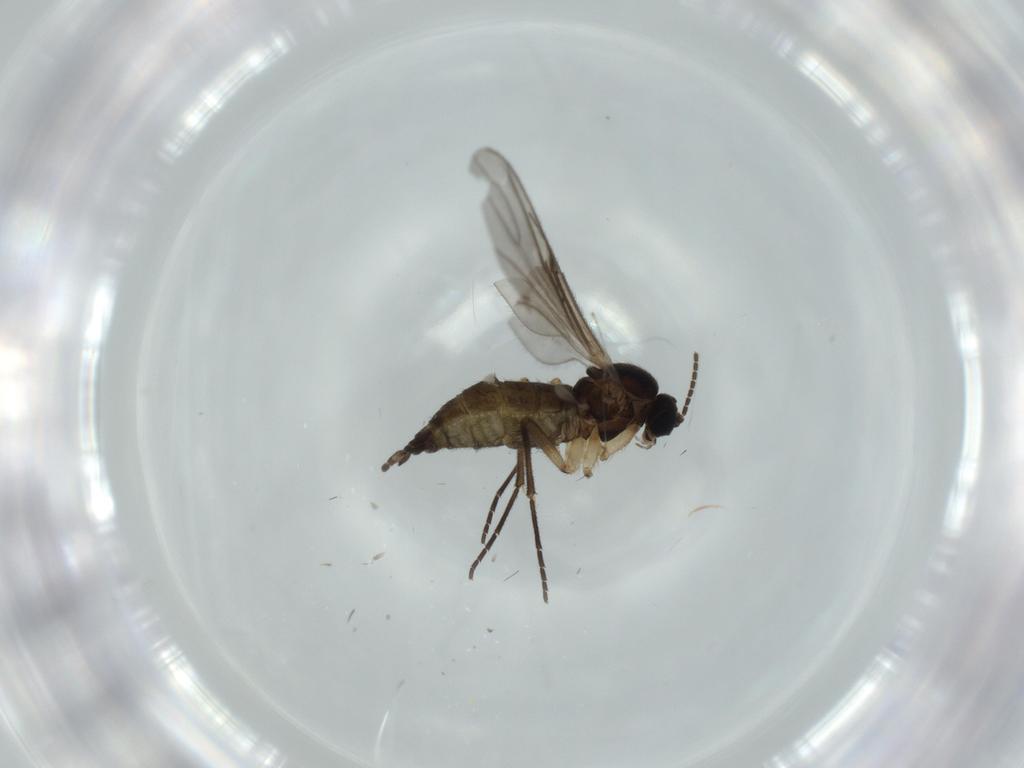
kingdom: Animalia
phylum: Arthropoda
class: Insecta
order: Diptera
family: Sciaridae
